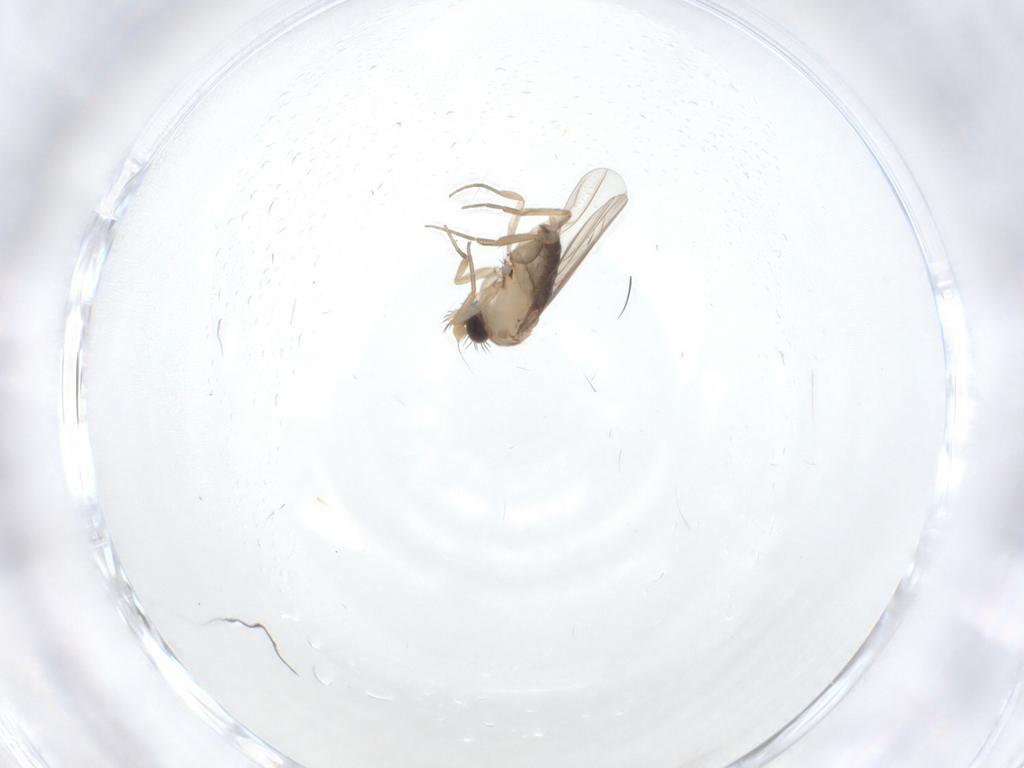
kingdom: Animalia
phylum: Arthropoda
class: Insecta
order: Diptera
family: Phoridae
